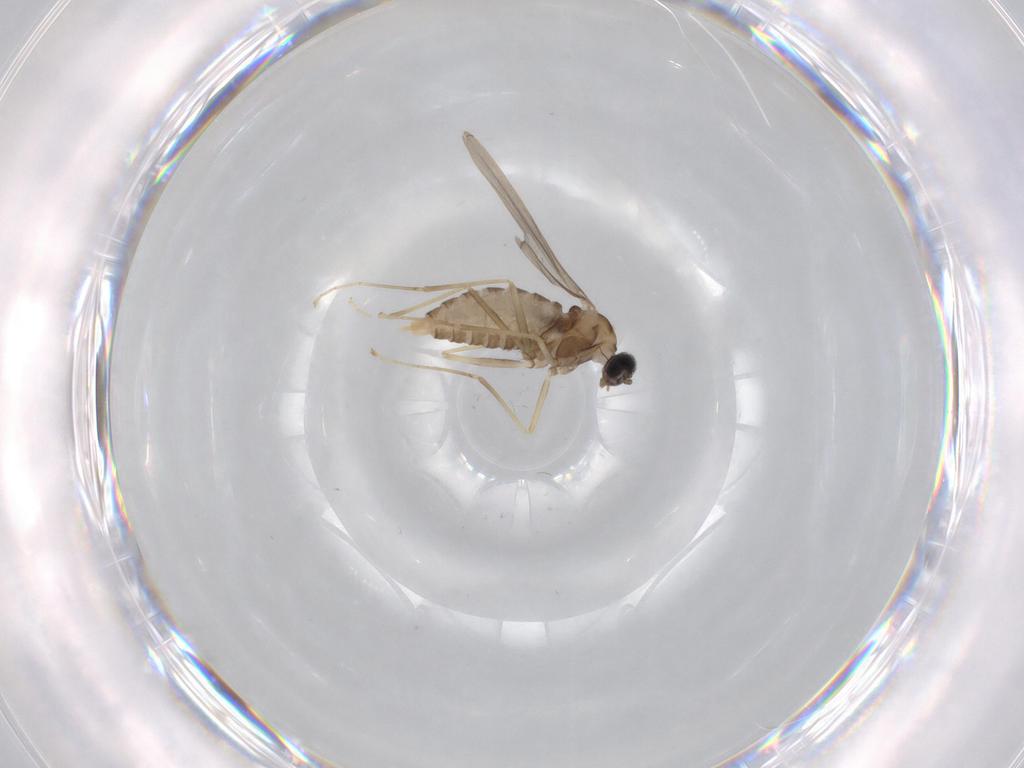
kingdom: Animalia
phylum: Arthropoda
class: Insecta
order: Diptera
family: Cecidomyiidae
